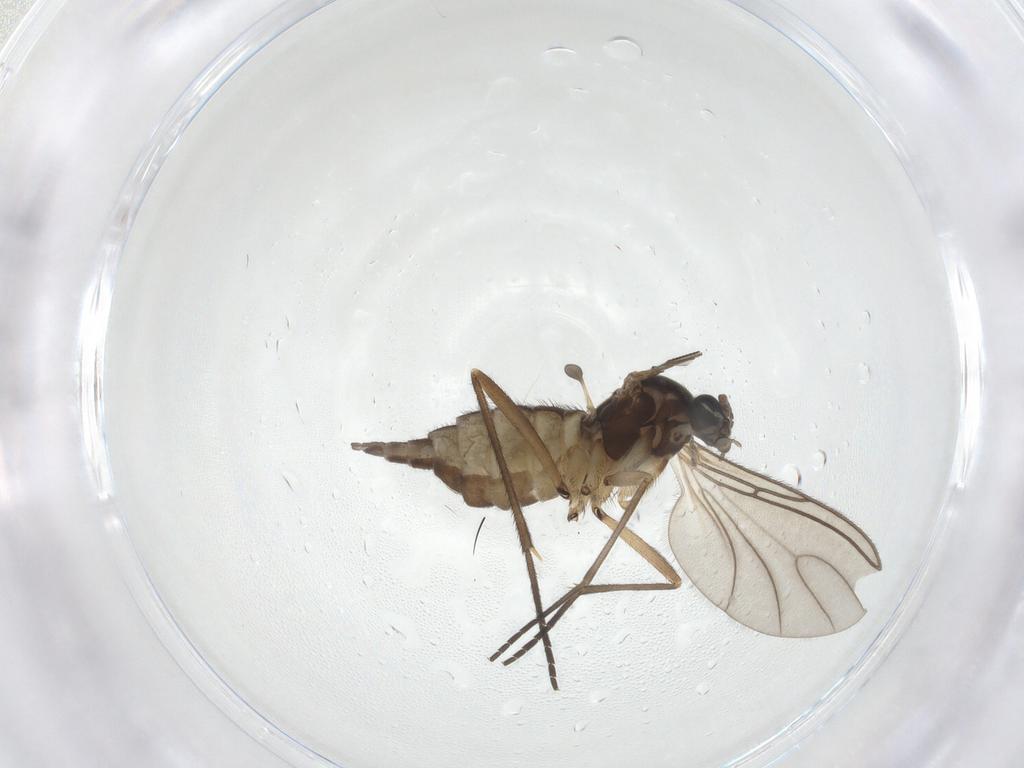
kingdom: Animalia
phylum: Arthropoda
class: Insecta
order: Diptera
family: Sciaridae
